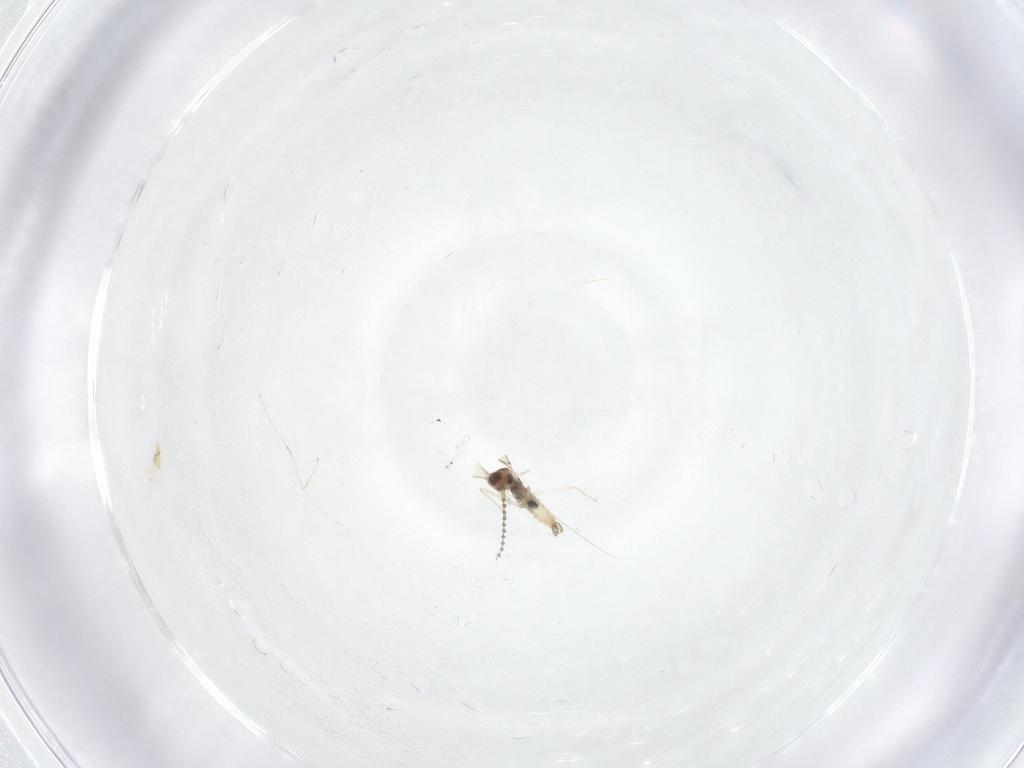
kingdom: Animalia
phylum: Arthropoda
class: Insecta
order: Diptera
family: Cecidomyiidae
